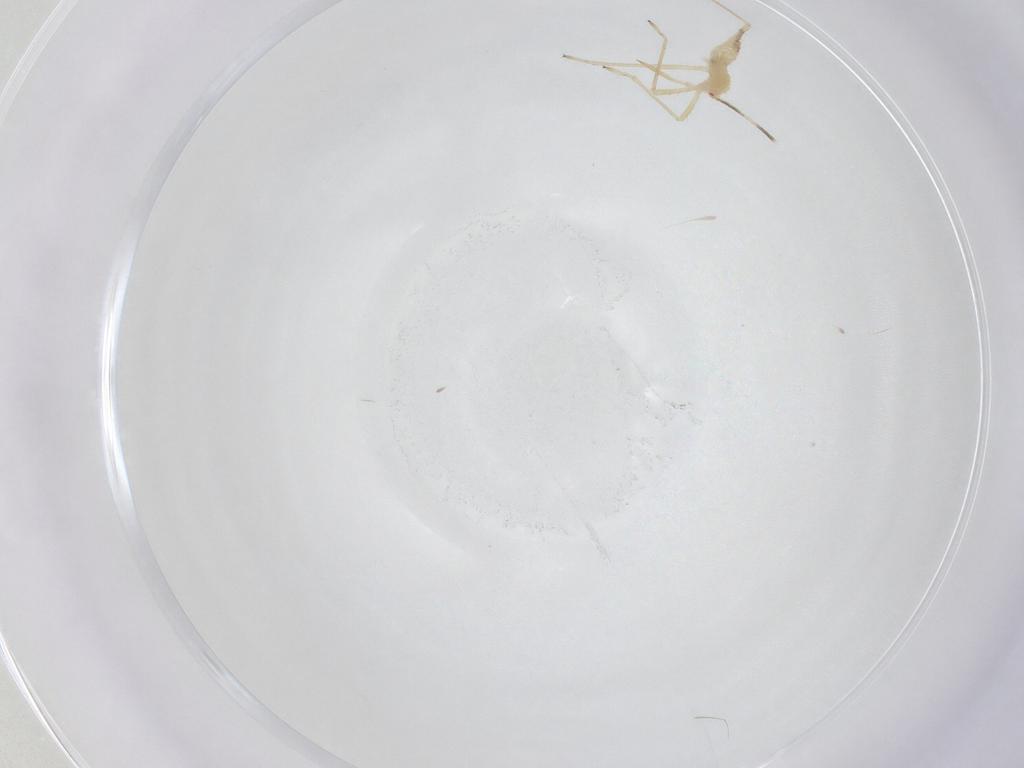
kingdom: Animalia
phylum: Arthropoda
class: Insecta
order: Hemiptera
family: Berytidae
